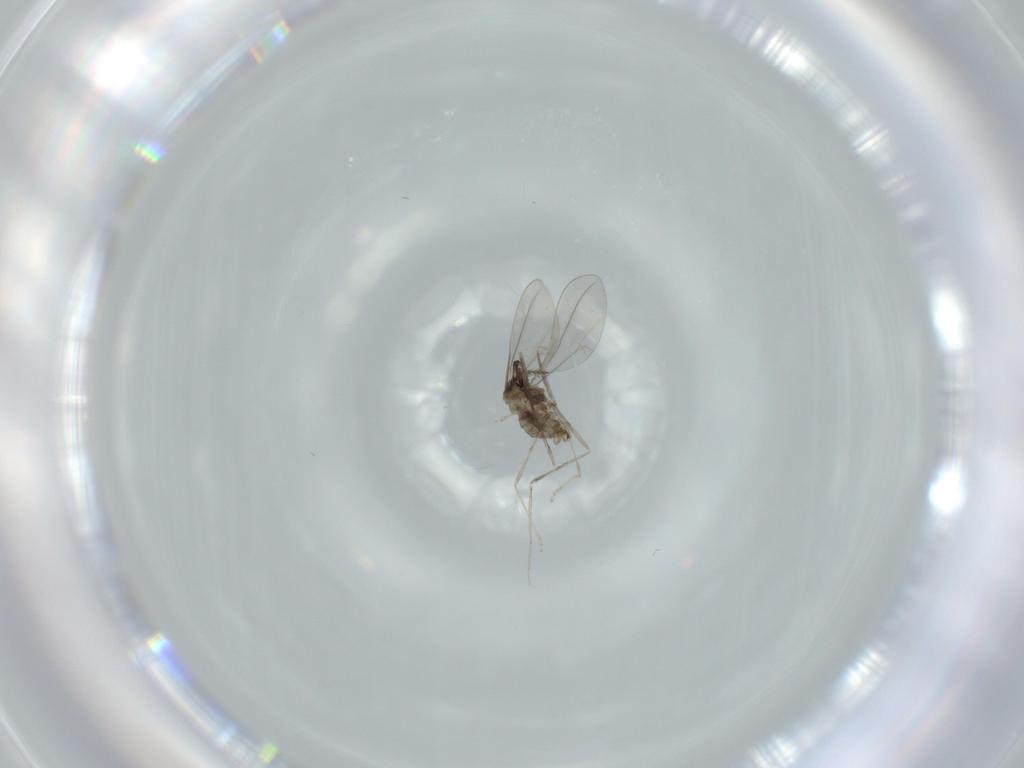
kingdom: Animalia
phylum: Arthropoda
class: Insecta
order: Diptera
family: Cecidomyiidae
